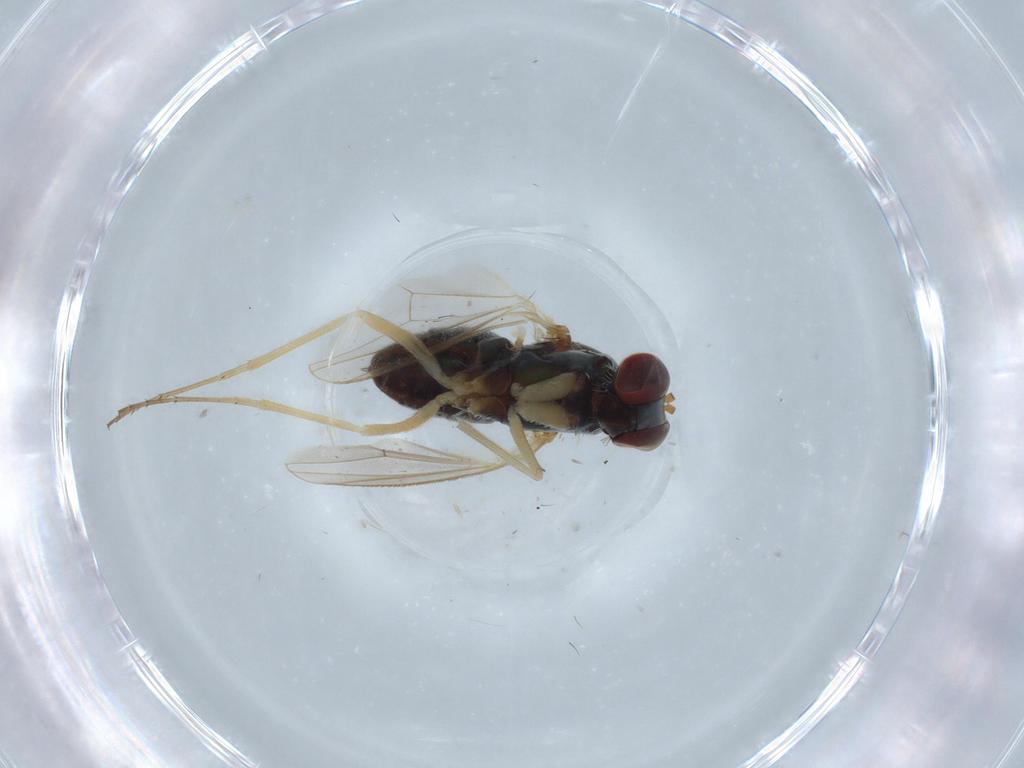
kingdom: Animalia
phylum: Arthropoda
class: Insecta
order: Diptera
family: Dolichopodidae
